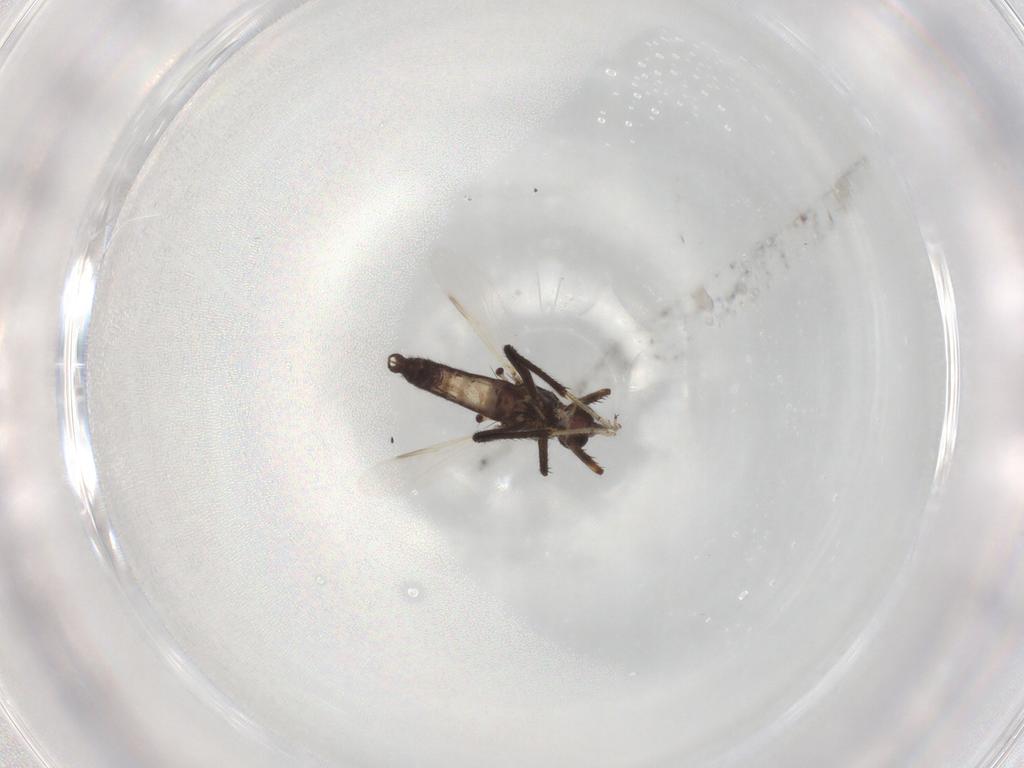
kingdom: Animalia
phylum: Arthropoda
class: Insecta
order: Diptera
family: Ceratopogonidae
